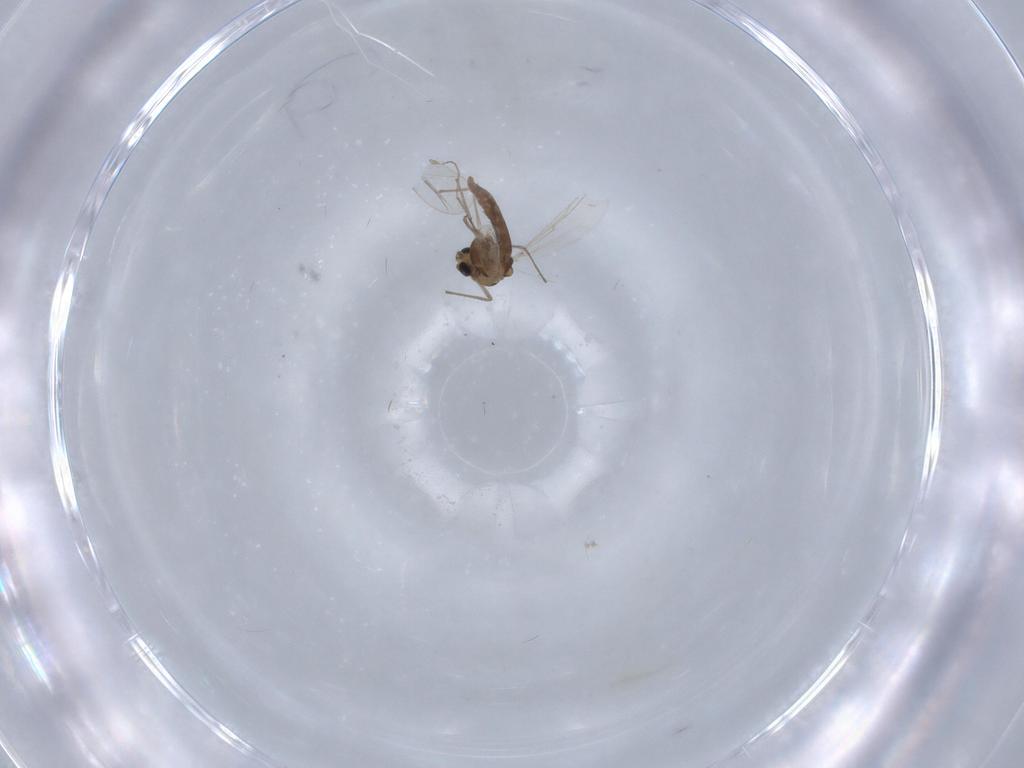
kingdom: Animalia
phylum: Arthropoda
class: Insecta
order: Diptera
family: Chironomidae
